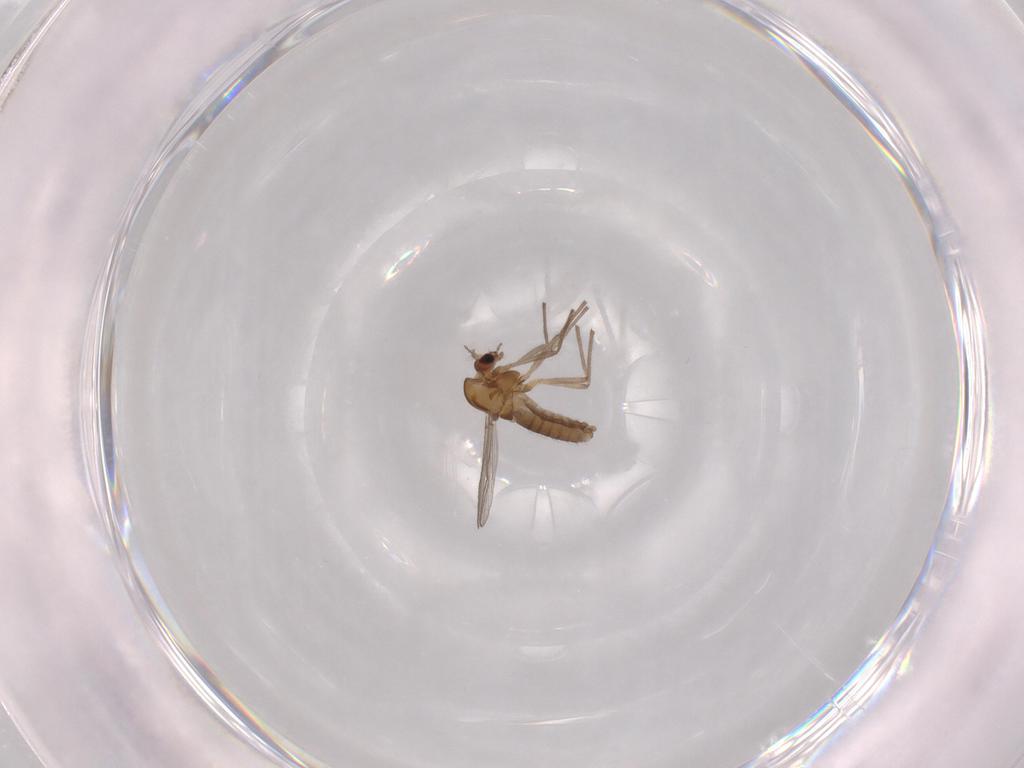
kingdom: Animalia
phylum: Arthropoda
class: Insecta
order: Diptera
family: Chironomidae
